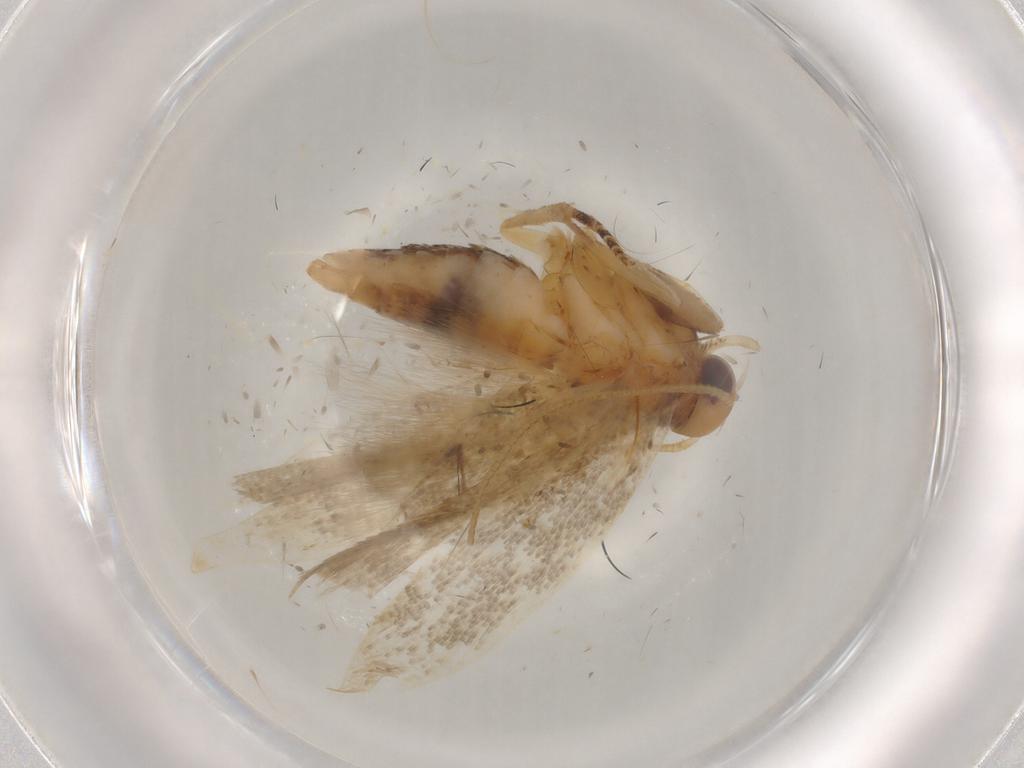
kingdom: Animalia
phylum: Arthropoda
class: Insecta
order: Lepidoptera
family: Gelechiidae
